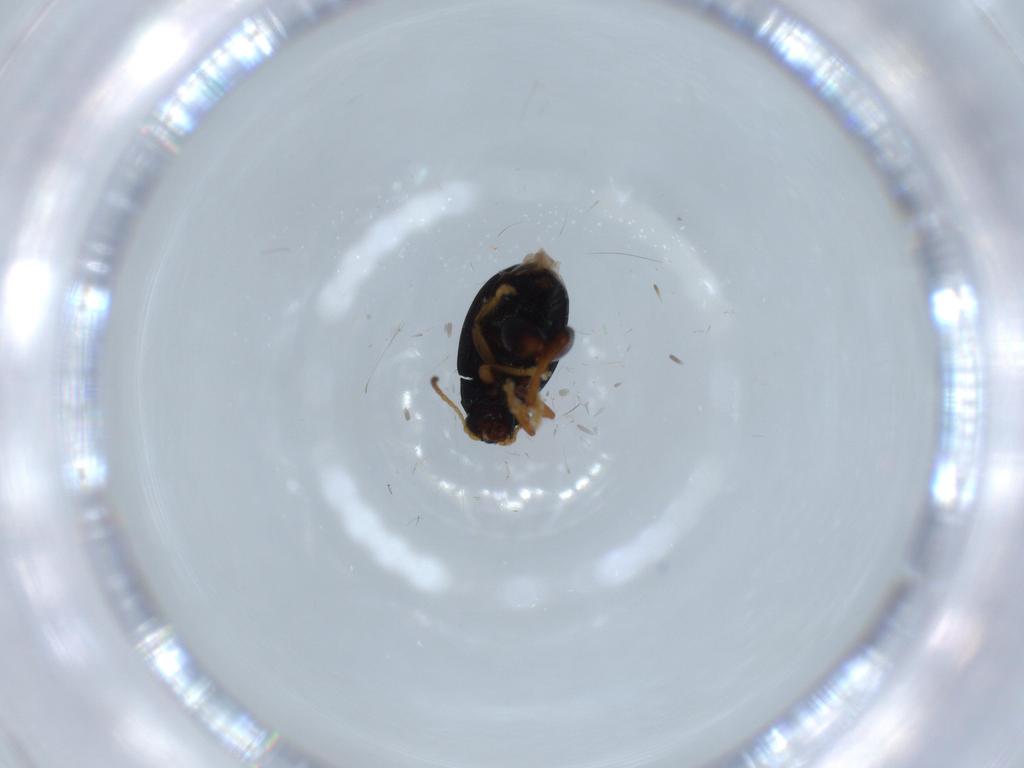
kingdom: Animalia
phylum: Arthropoda
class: Insecta
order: Coleoptera
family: Chrysomelidae
